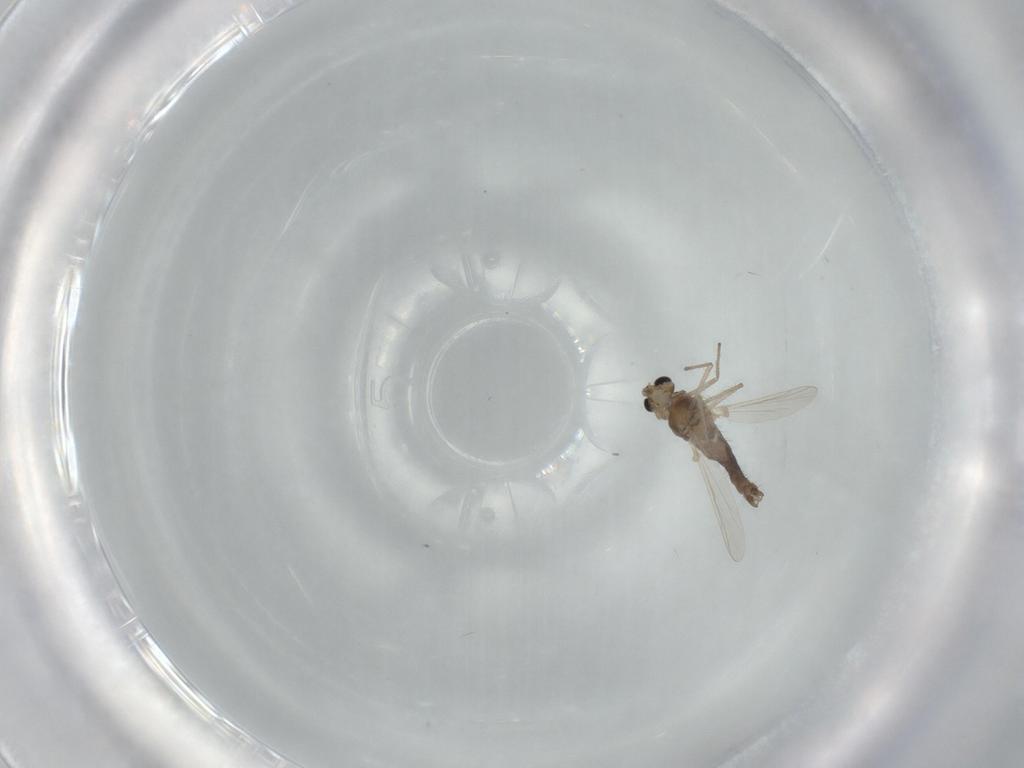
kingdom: Animalia
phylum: Arthropoda
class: Insecta
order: Diptera
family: Chironomidae
